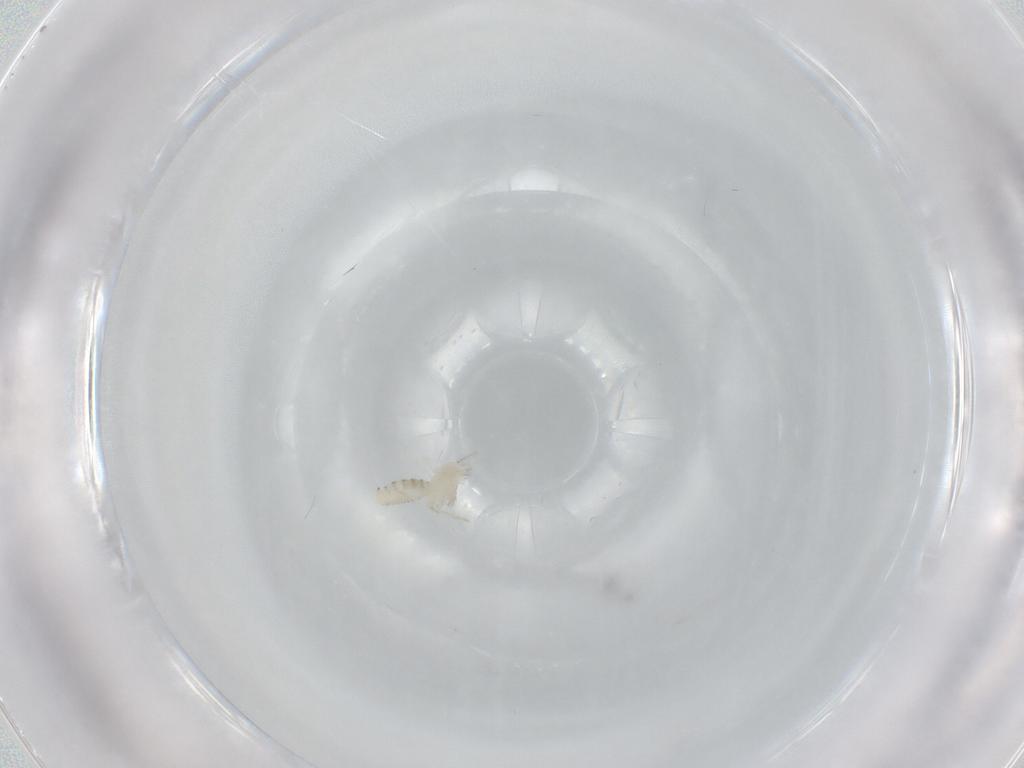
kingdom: Animalia
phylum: Arthropoda
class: Insecta
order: Diptera
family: Cecidomyiidae
